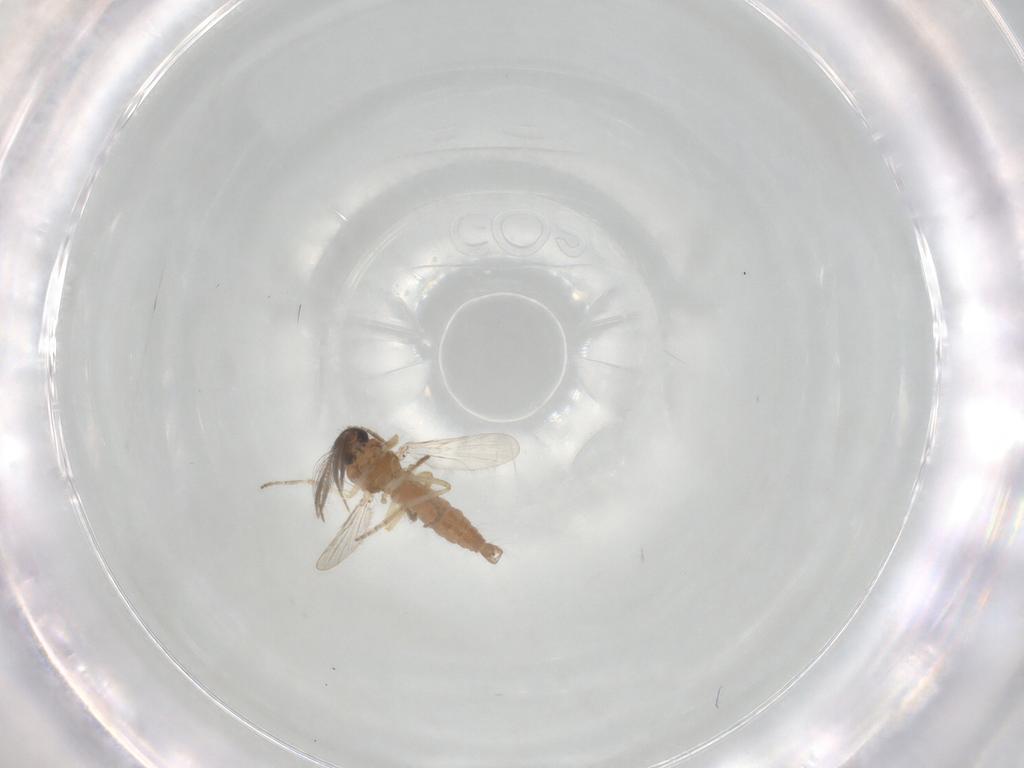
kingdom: Animalia
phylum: Arthropoda
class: Insecta
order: Diptera
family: Ceratopogonidae
